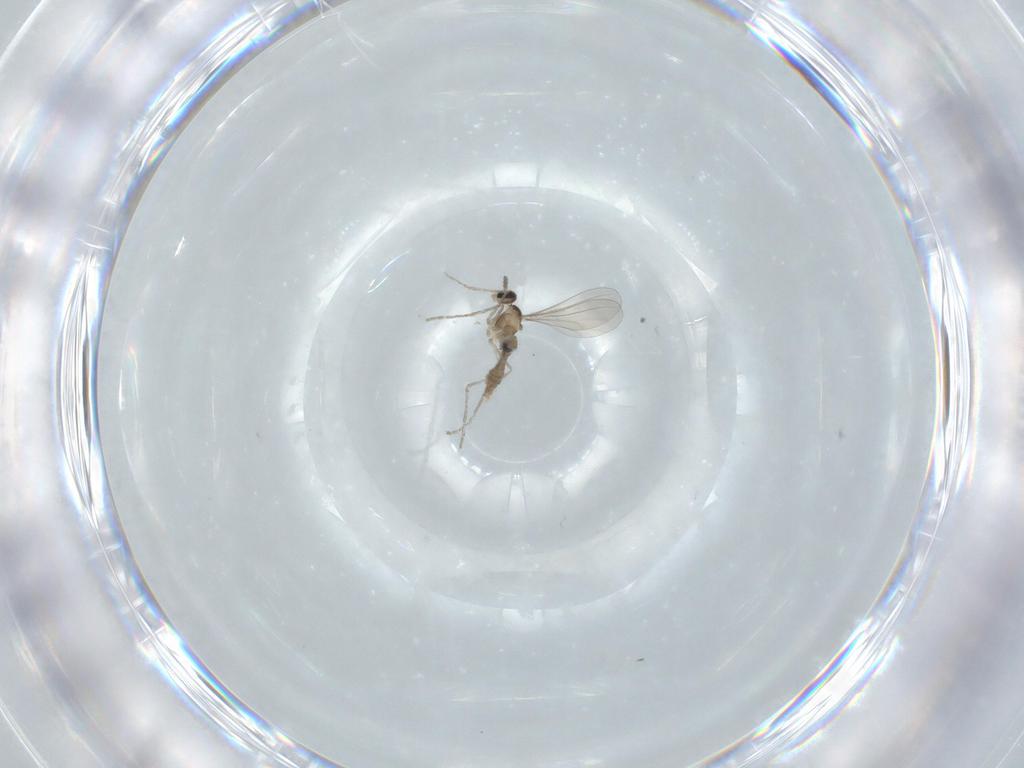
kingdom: Animalia
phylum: Arthropoda
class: Insecta
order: Diptera
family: Cecidomyiidae
